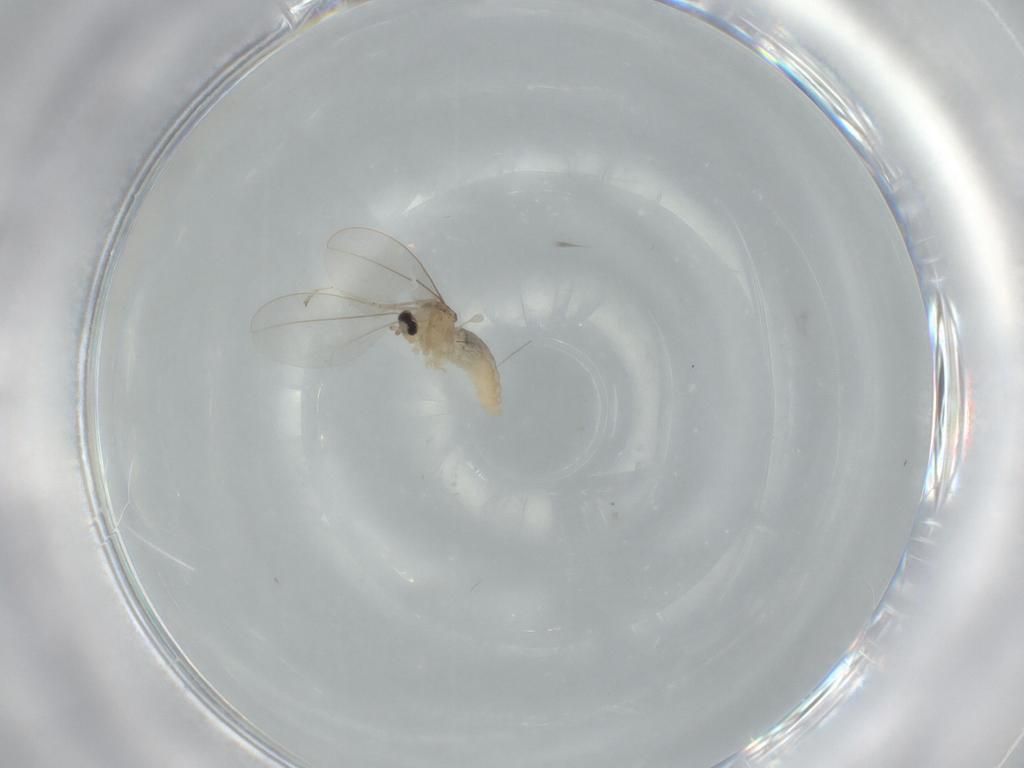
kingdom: Animalia
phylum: Arthropoda
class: Insecta
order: Diptera
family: Cecidomyiidae
